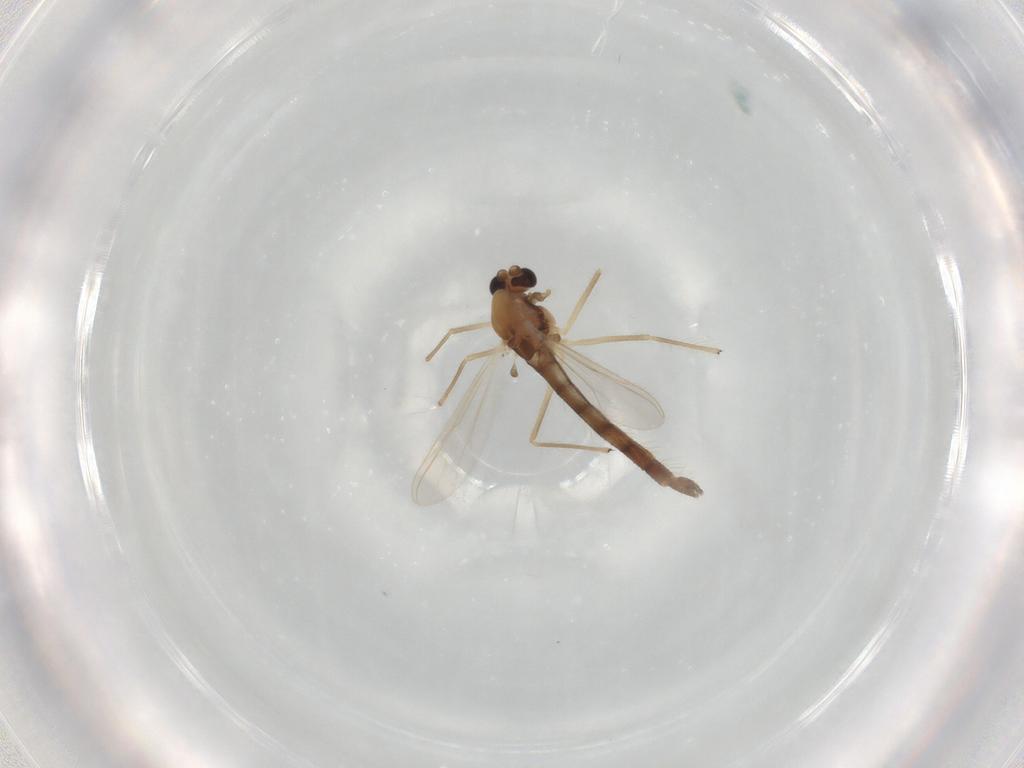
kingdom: Animalia
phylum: Arthropoda
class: Insecta
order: Diptera
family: Chironomidae
